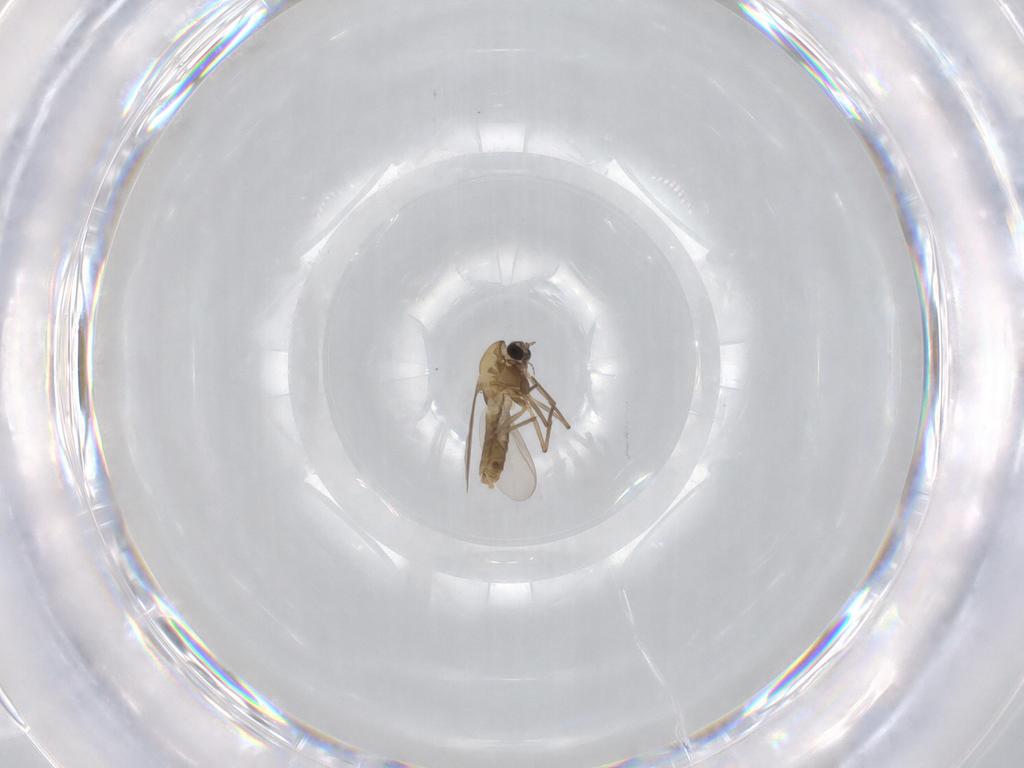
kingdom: Animalia
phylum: Arthropoda
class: Insecta
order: Diptera
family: Chironomidae
